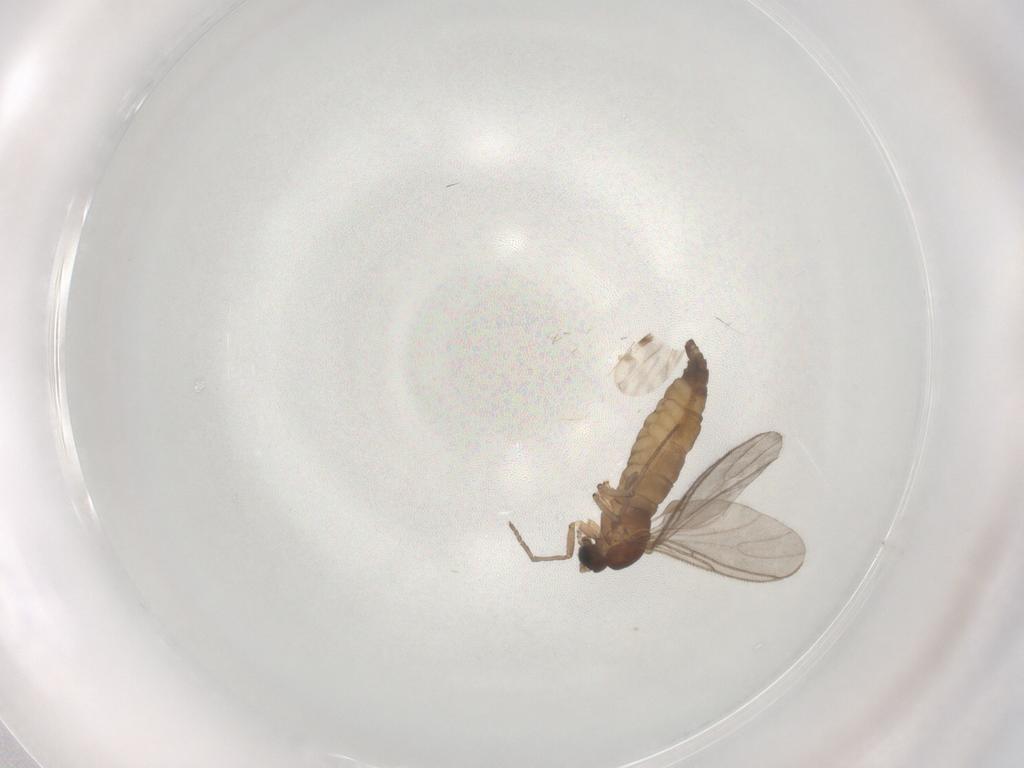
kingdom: Animalia
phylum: Arthropoda
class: Insecta
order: Diptera
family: Sciaridae
